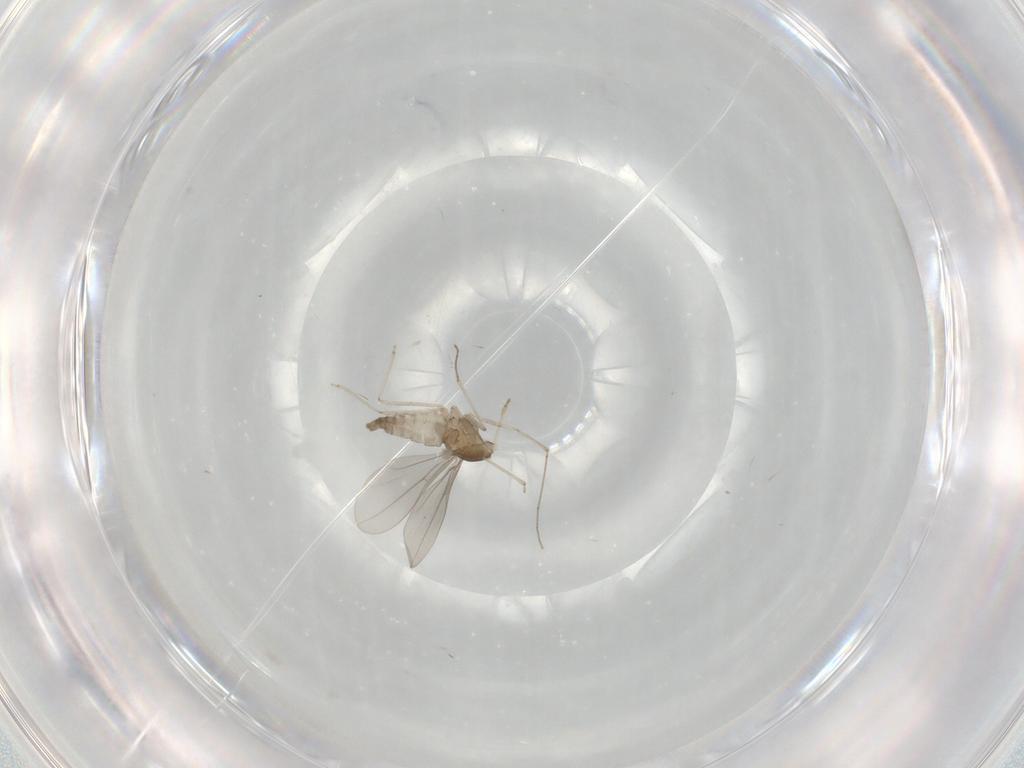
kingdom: Animalia
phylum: Arthropoda
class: Insecta
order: Diptera
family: Cecidomyiidae
